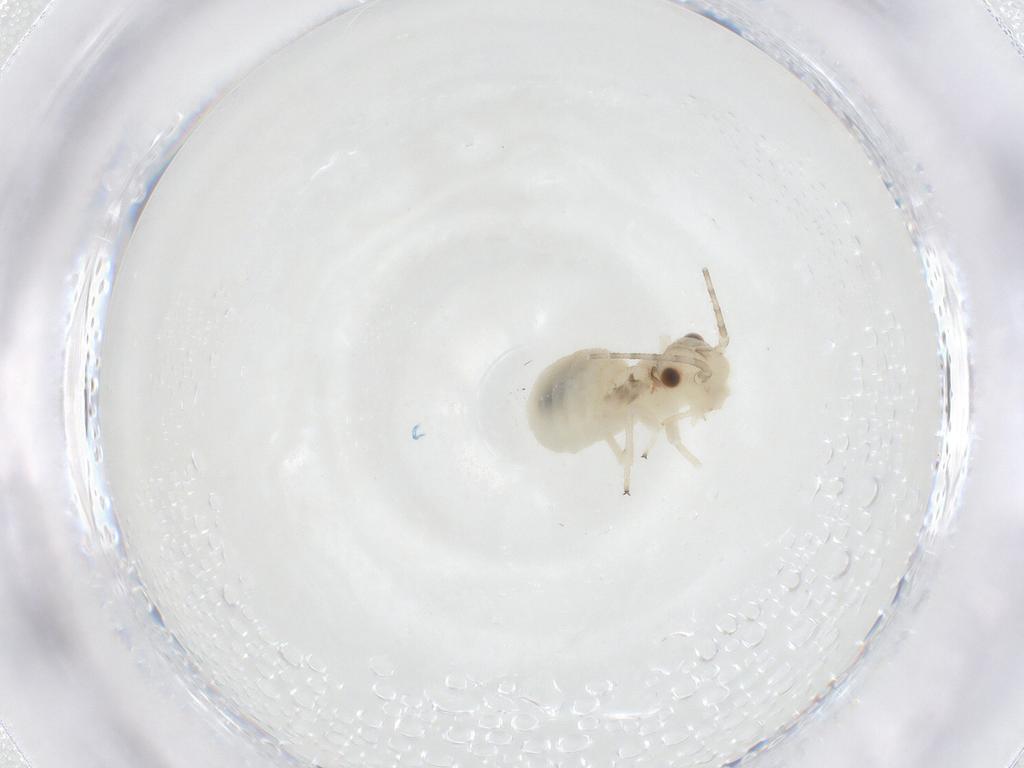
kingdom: Animalia
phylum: Arthropoda
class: Insecta
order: Psocodea
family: Amphipsocidae
